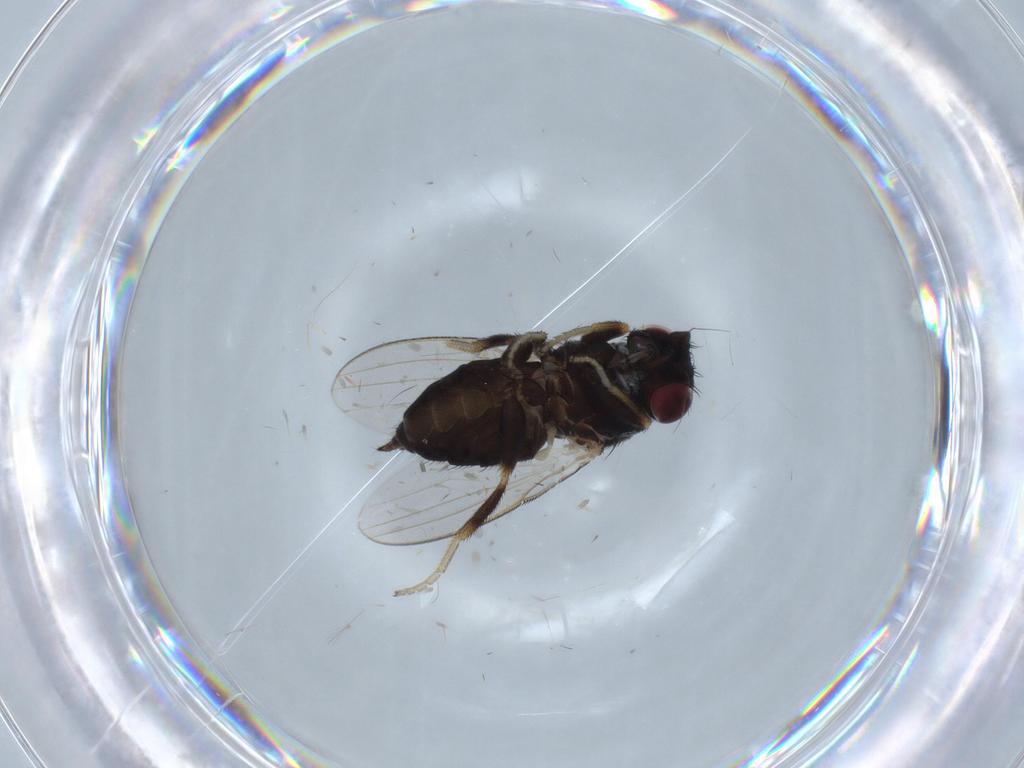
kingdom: Animalia
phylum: Arthropoda
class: Insecta
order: Diptera
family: Milichiidae
